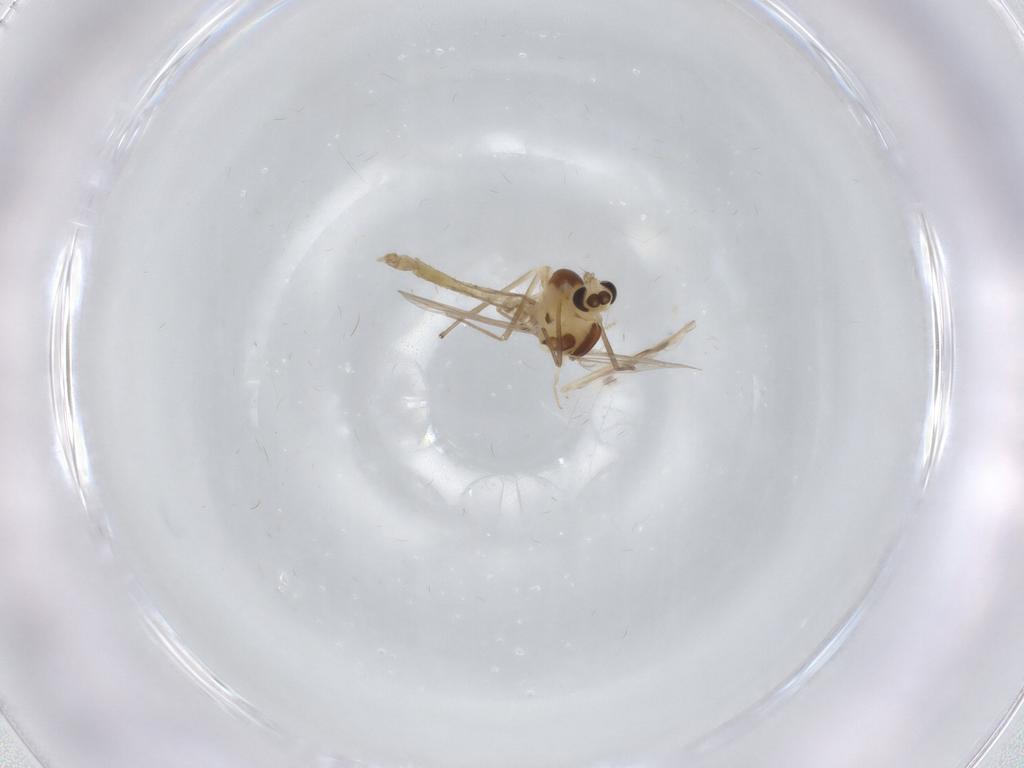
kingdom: Animalia
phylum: Arthropoda
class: Insecta
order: Diptera
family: Chironomidae
